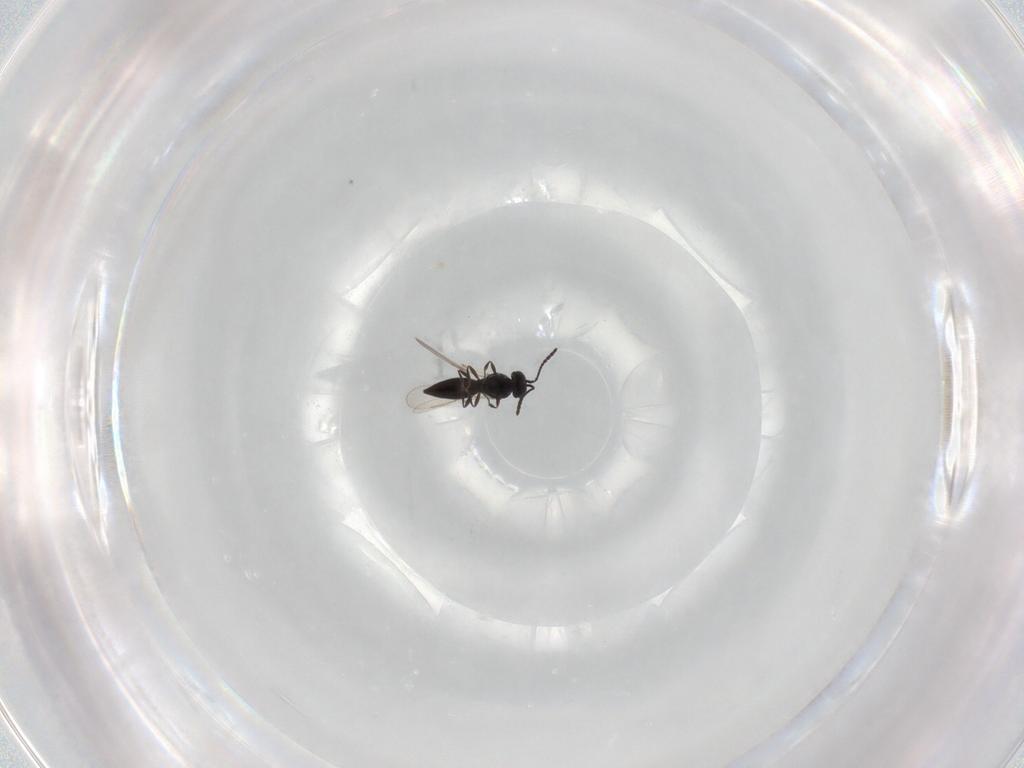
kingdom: Animalia
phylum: Arthropoda
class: Insecta
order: Hymenoptera
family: Scelionidae
